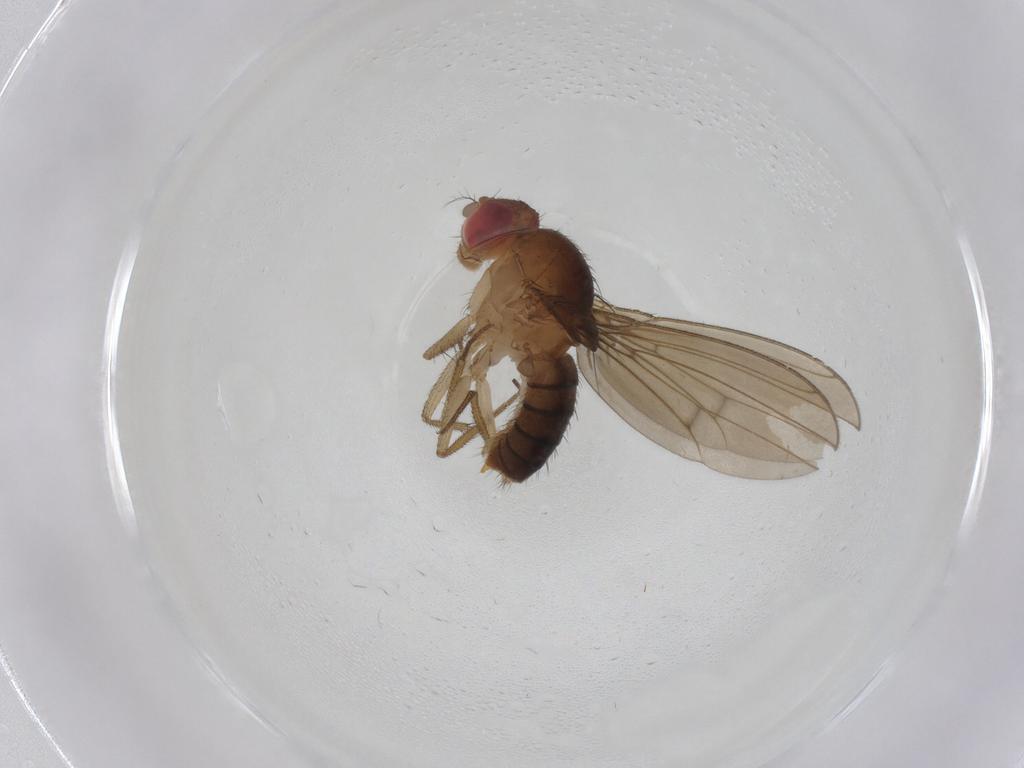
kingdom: Animalia
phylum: Arthropoda
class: Insecta
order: Diptera
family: Drosophilidae
